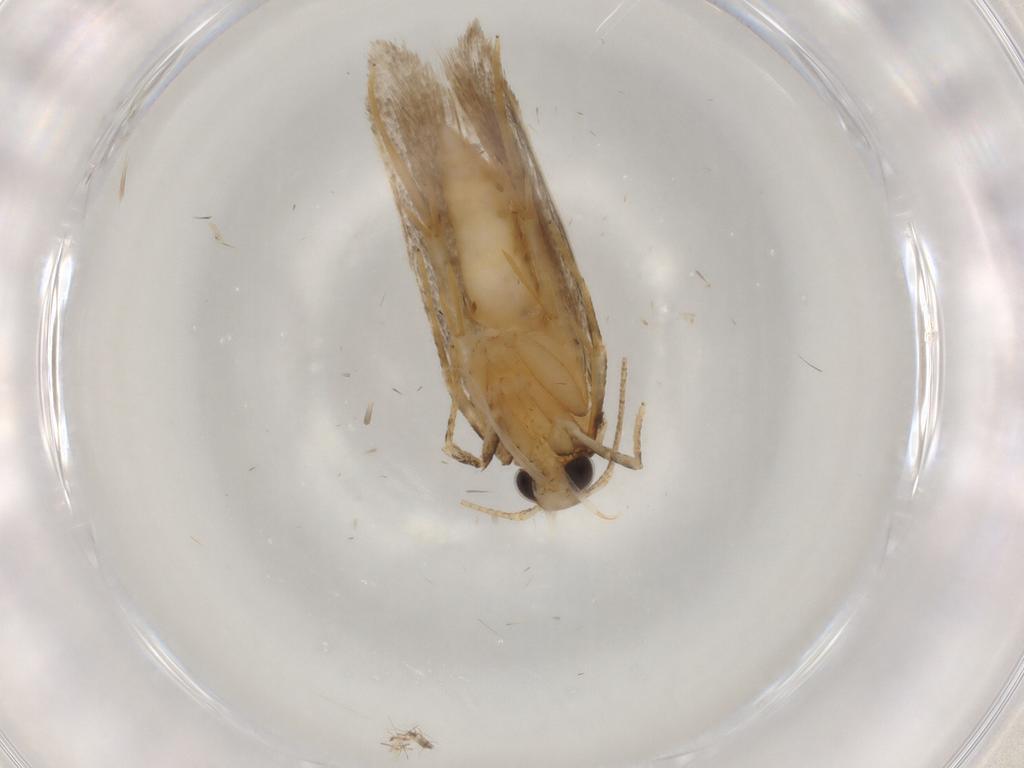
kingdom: Animalia
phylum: Arthropoda
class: Insecta
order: Lepidoptera
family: Autostichidae
